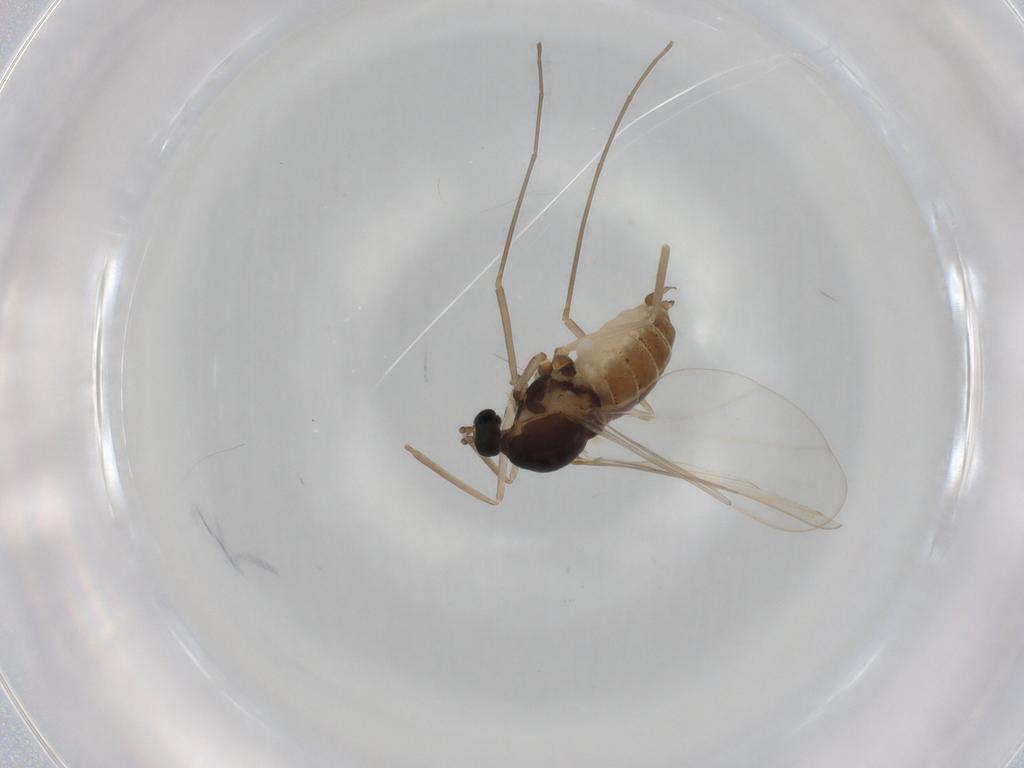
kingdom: Animalia
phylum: Arthropoda
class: Insecta
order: Diptera
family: Cecidomyiidae
